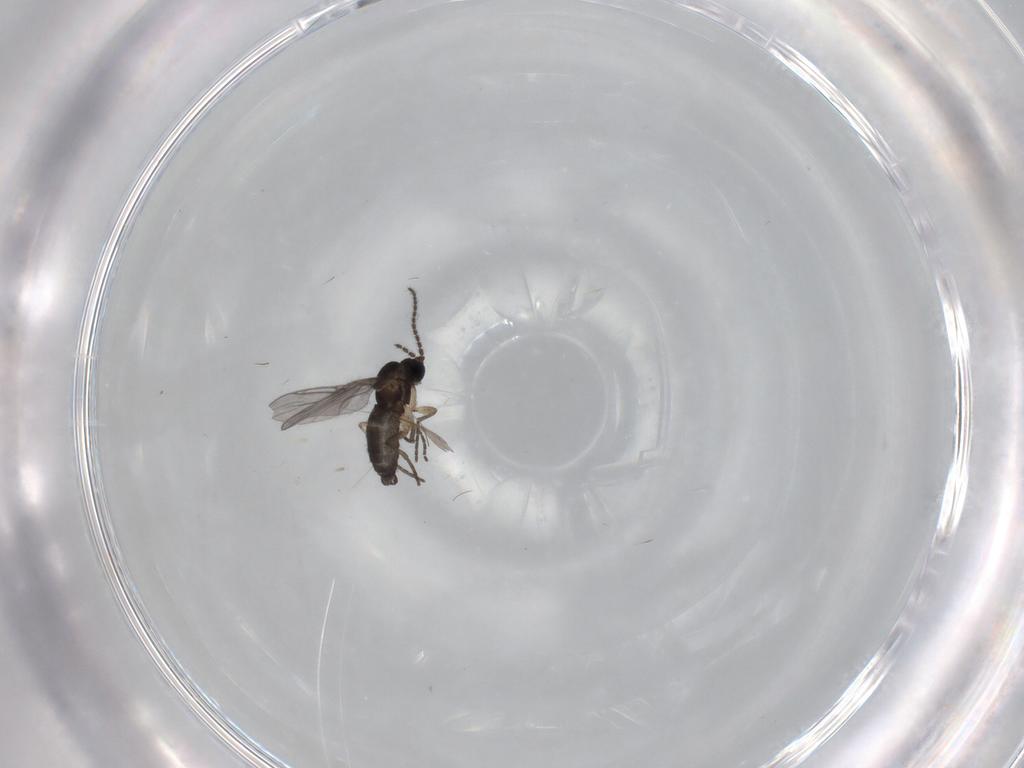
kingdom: Animalia
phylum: Arthropoda
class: Insecta
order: Diptera
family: Sciaridae
